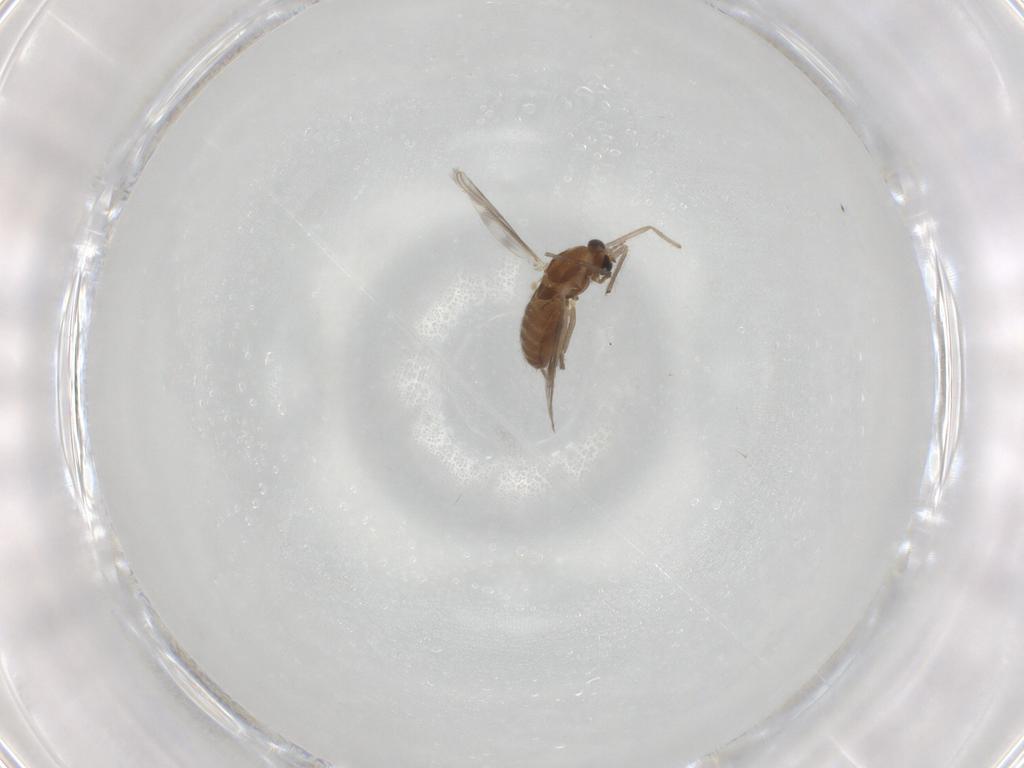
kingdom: Animalia
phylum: Arthropoda
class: Insecta
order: Diptera
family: Chironomidae
